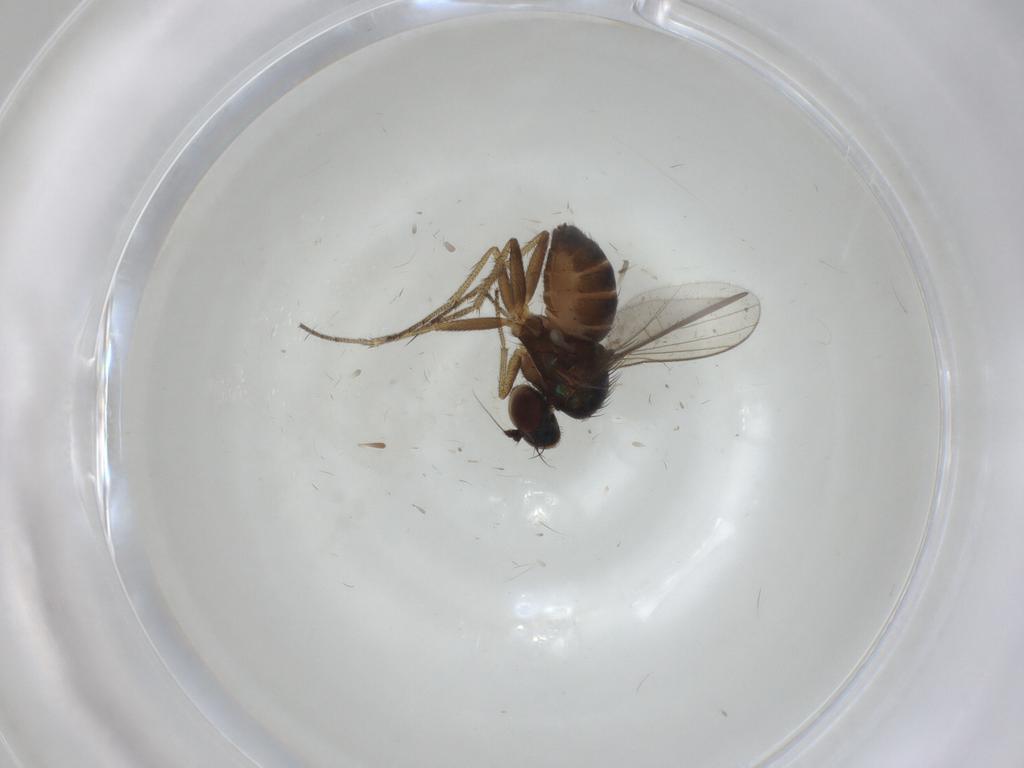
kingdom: Animalia
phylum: Arthropoda
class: Insecta
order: Diptera
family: Dolichopodidae
